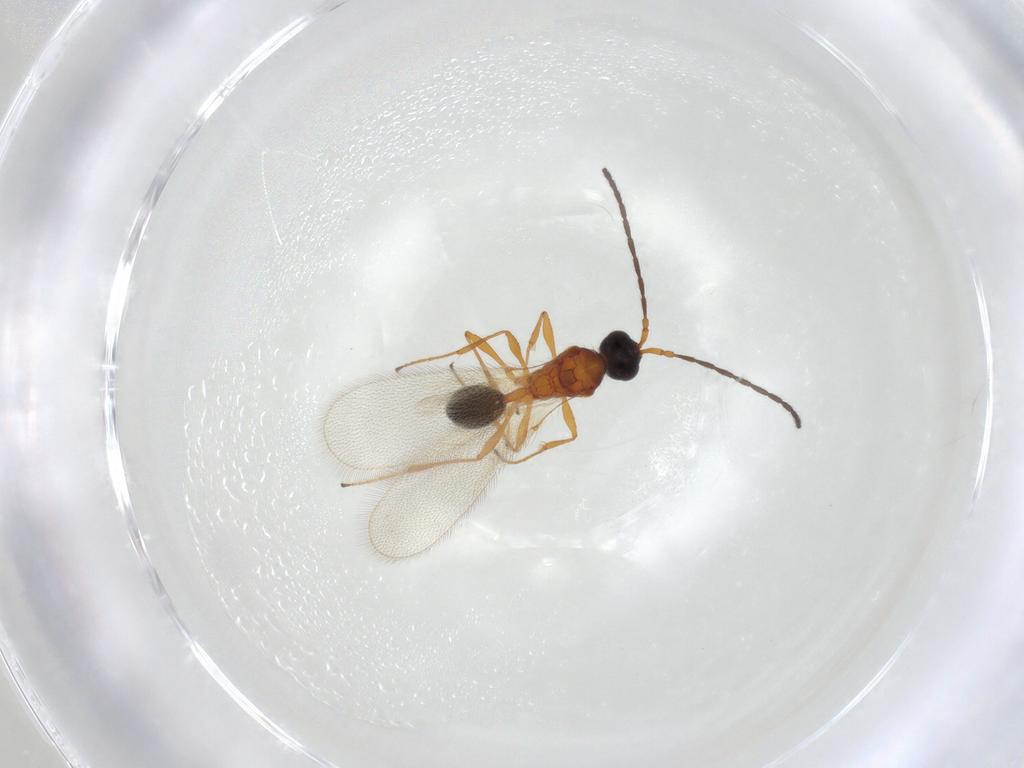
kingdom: Animalia
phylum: Arthropoda
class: Insecta
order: Hymenoptera
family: Diapriidae
